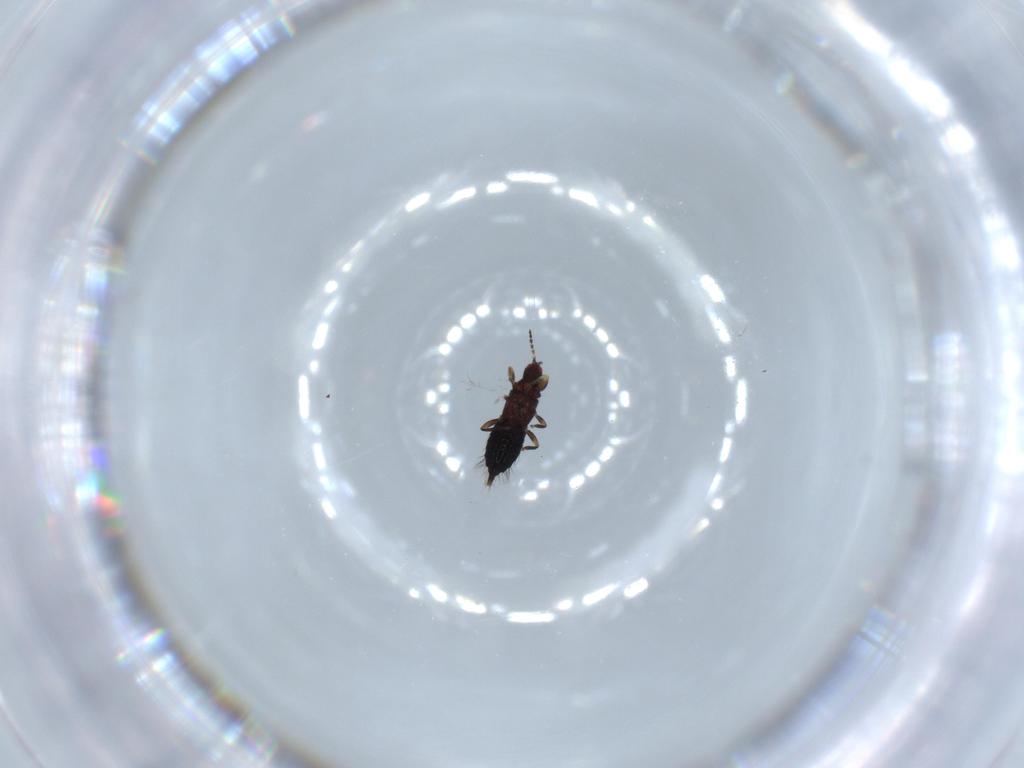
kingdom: Animalia
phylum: Arthropoda
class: Insecta
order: Thysanoptera
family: Phlaeothripidae
